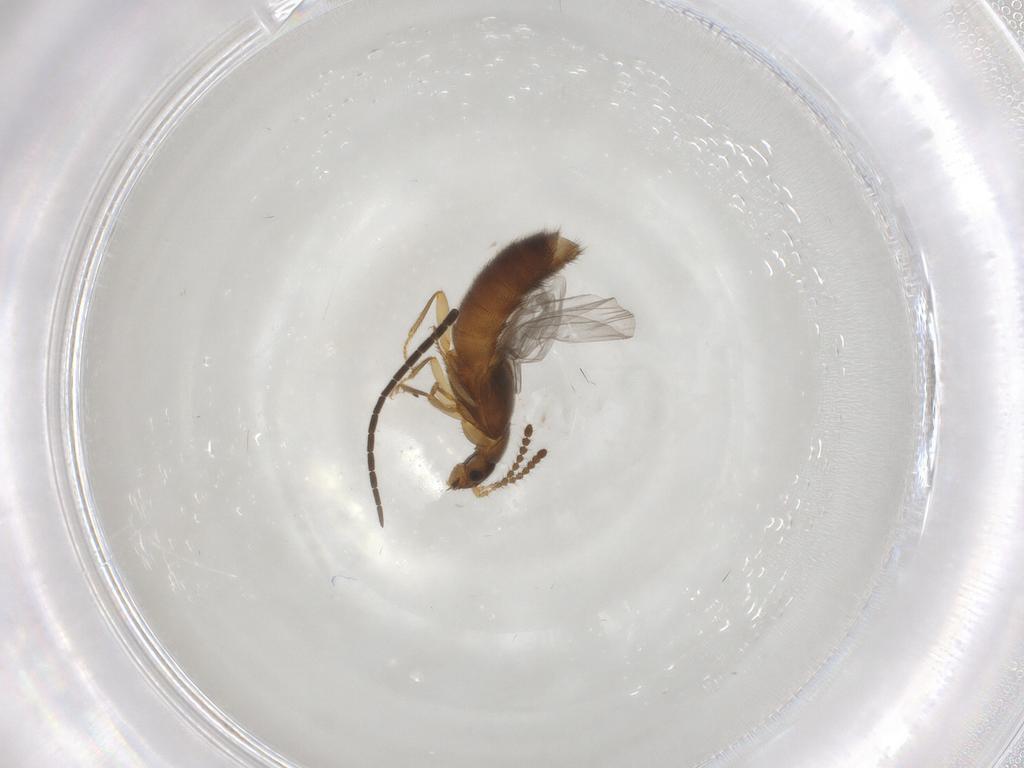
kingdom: Animalia
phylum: Arthropoda
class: Insecta
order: Coleoptera
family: Staphylinidae
